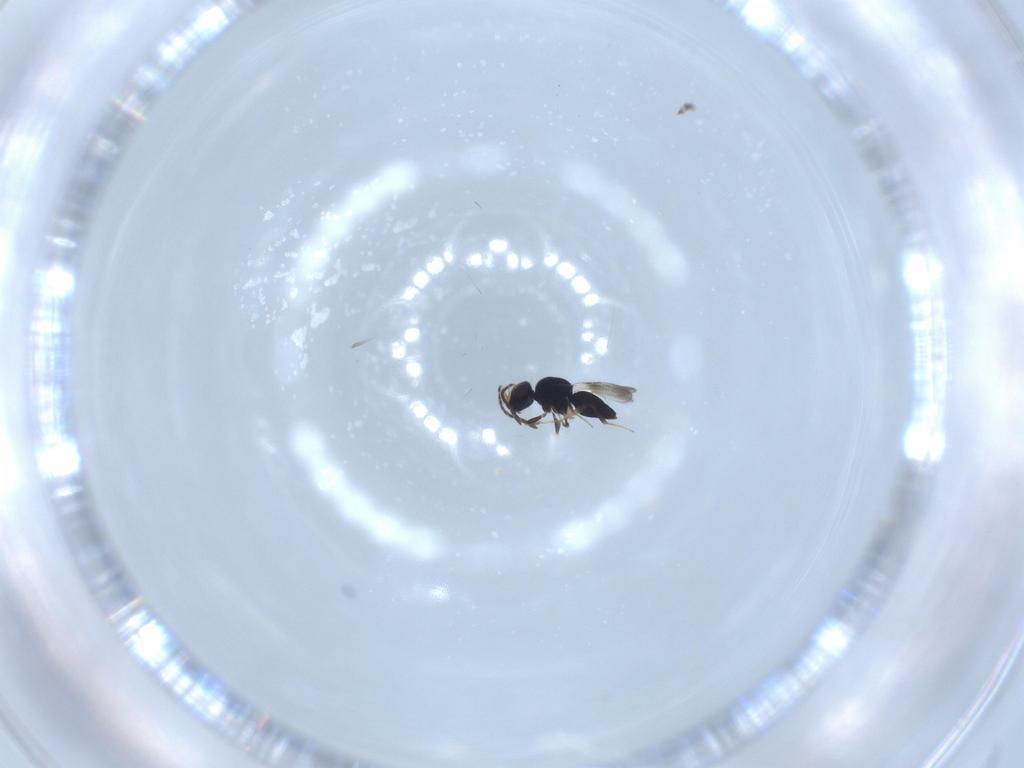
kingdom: Animalia
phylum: Arthropoda
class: Insecta
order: Hymenoptera
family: Ceraphronidae
